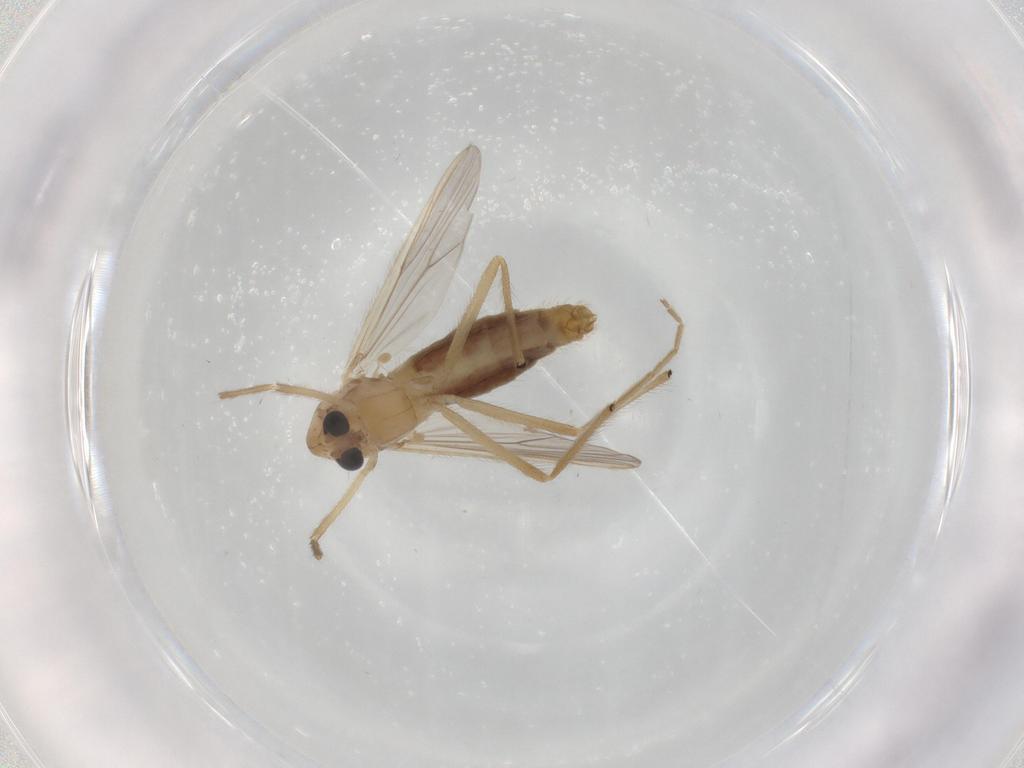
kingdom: Animalia
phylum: Arthropoda
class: Insecta
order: Diptera
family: Chironomidae
